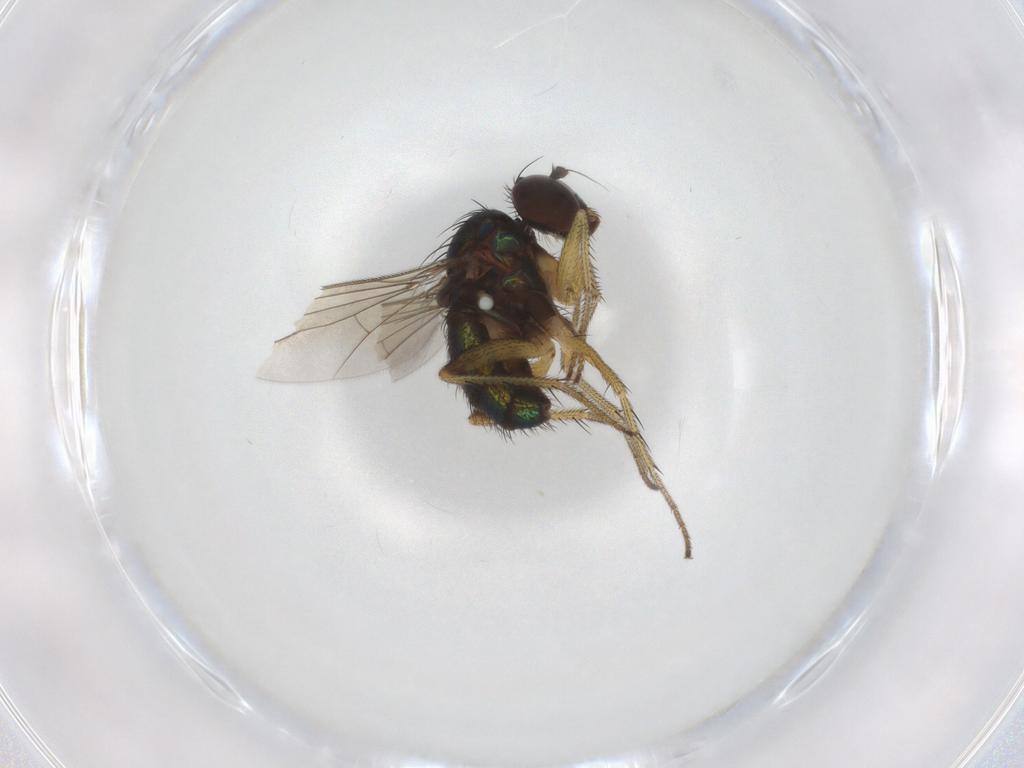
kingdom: Animalia
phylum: Arthropoda
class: Insecta
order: Diptera
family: Dolichopodidae
